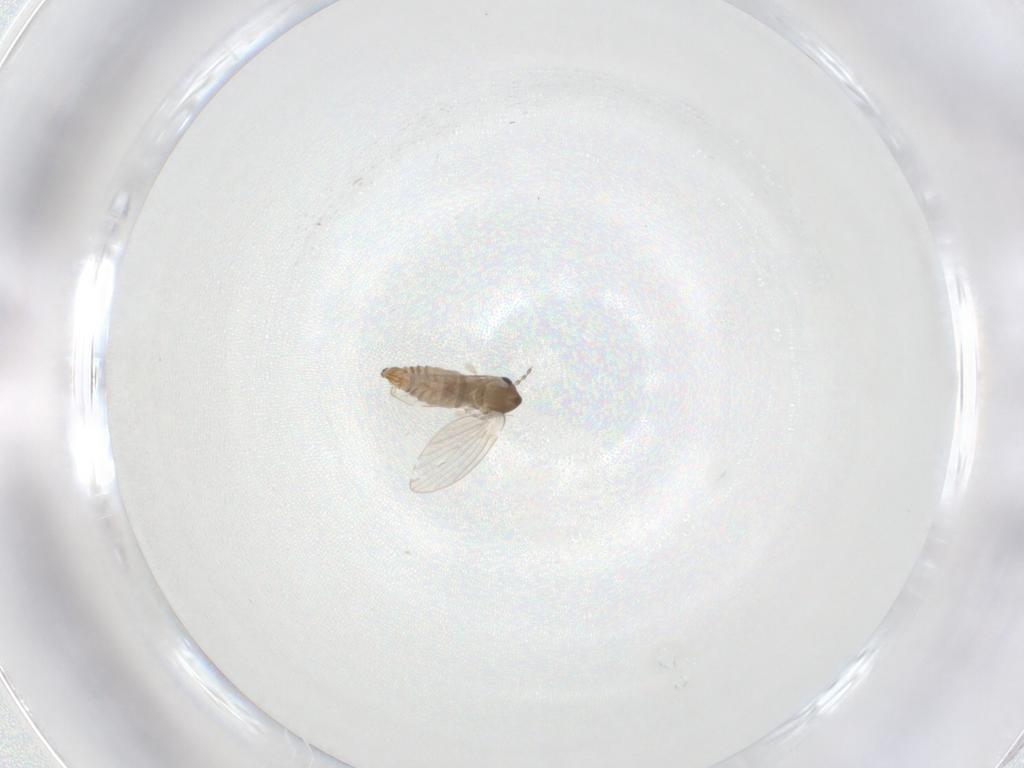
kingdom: Animalia
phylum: Arthropoda
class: Insecta
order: Diptera
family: Psychodidae
